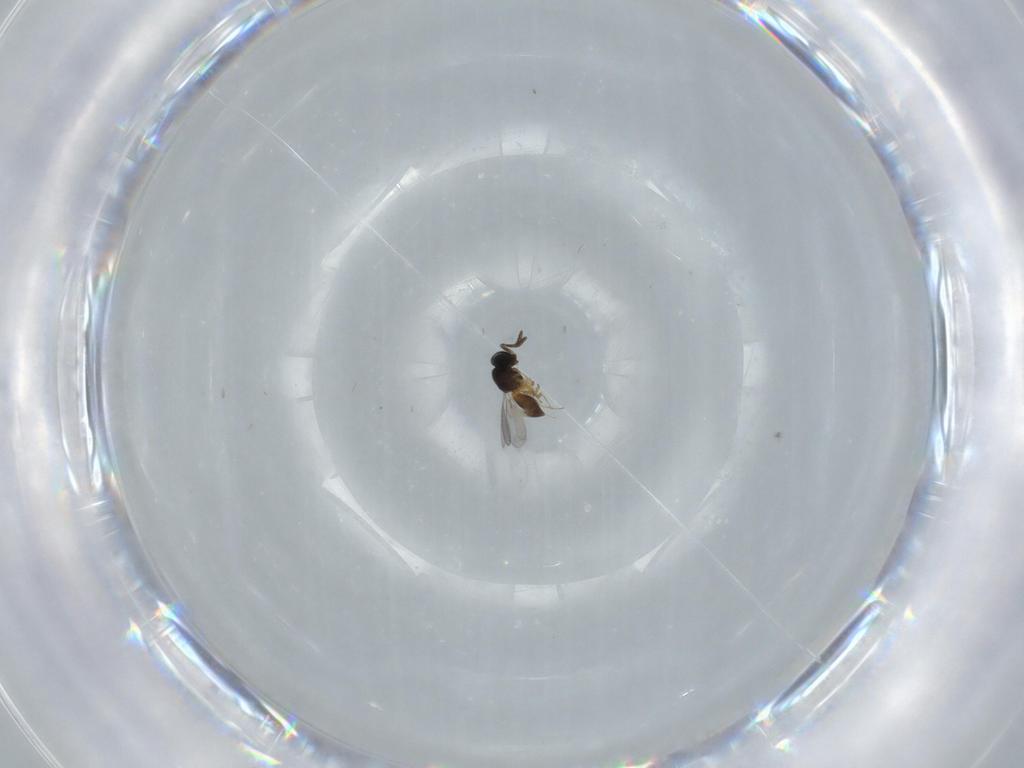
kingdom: Animalia
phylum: Arthropoda
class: Insecta
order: Hymenoptera
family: Scelionidae
